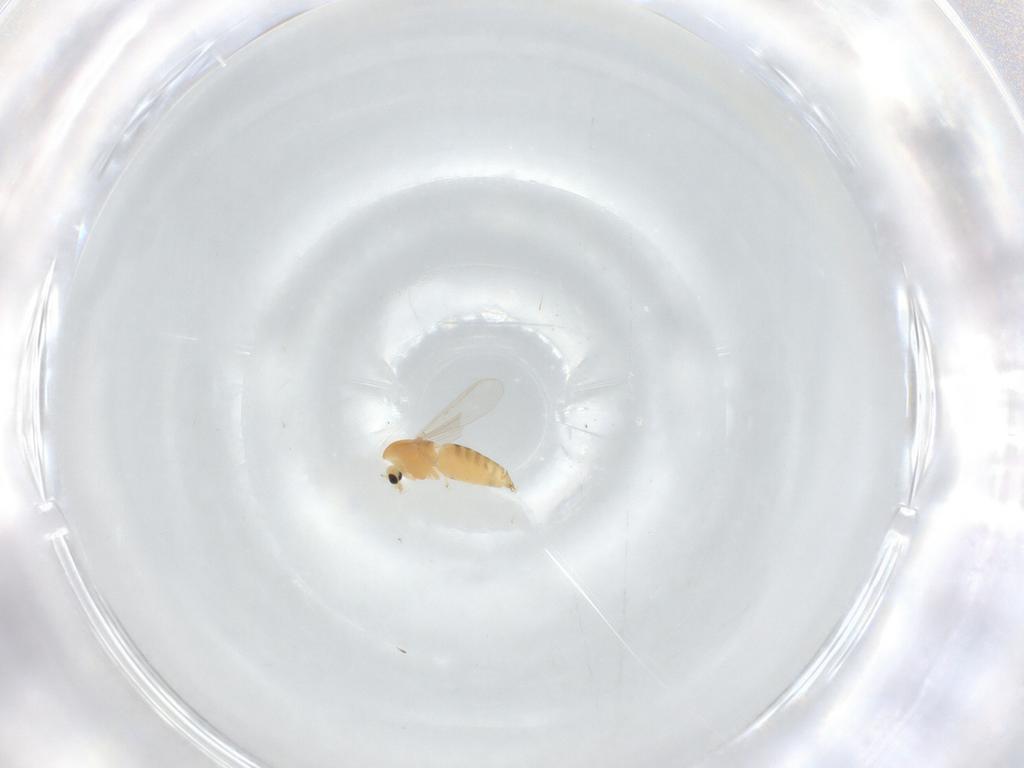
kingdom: Animalia
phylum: Arthropoda
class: Insecta
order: Diptera
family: Chironomidae
